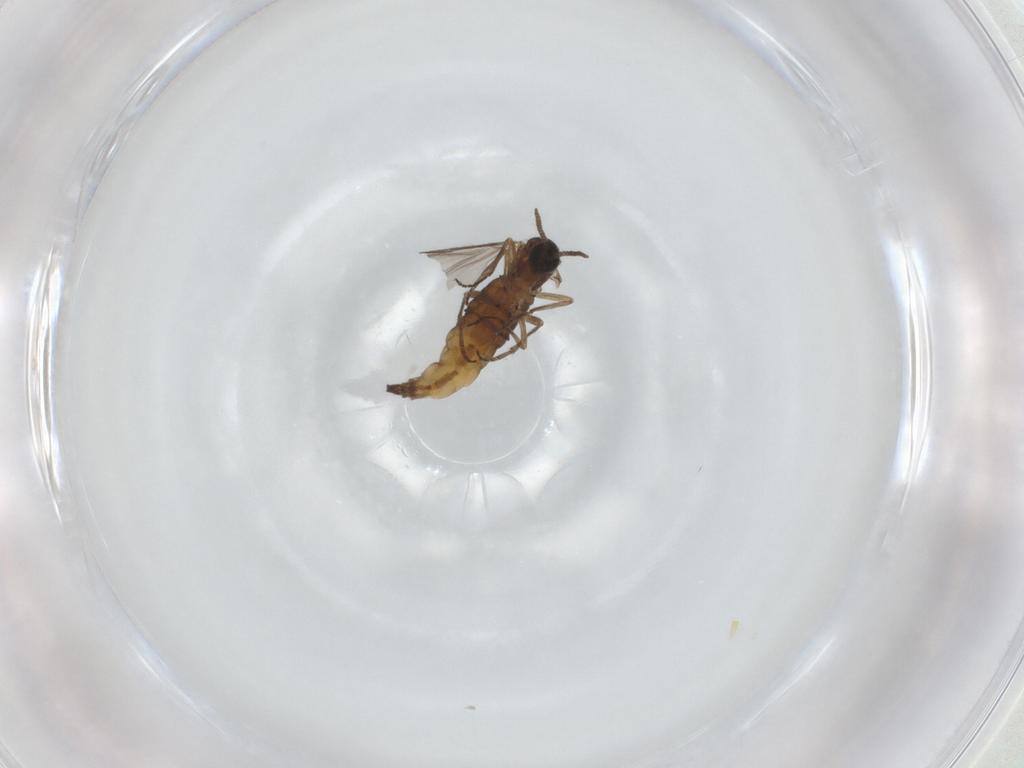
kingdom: Animalia
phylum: Arthropoda
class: Insecta
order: Diptera
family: Sciaridae
